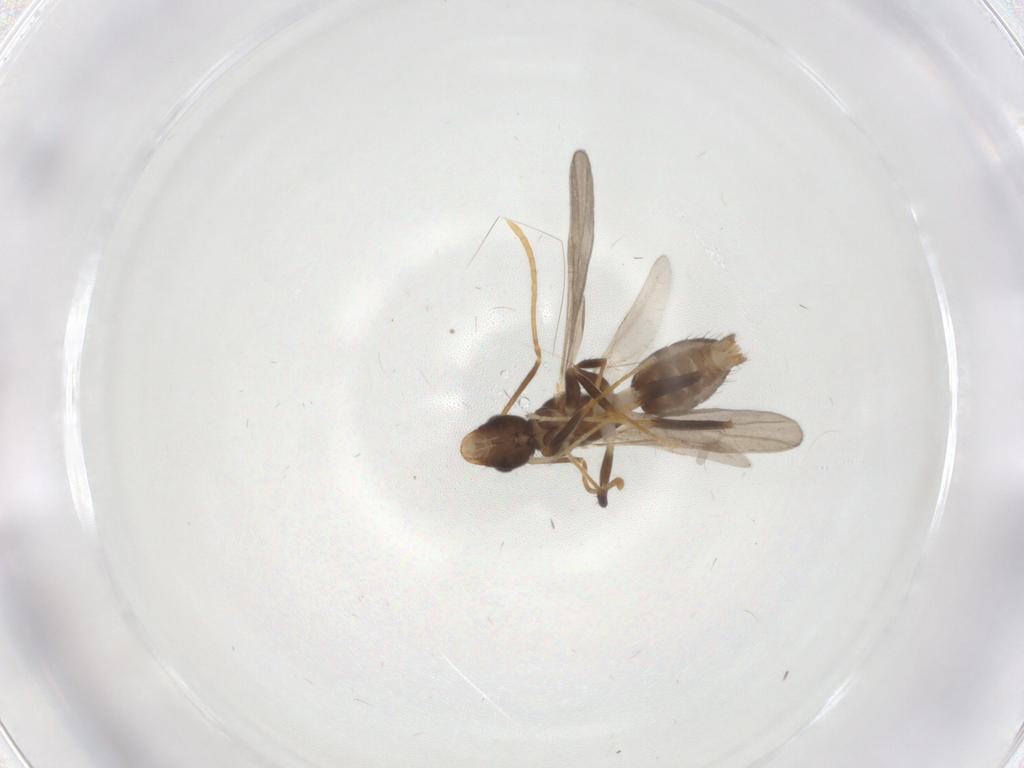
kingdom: Animalia
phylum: Arthropoda
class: Insecta
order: Hymenoptera
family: Formicidae
